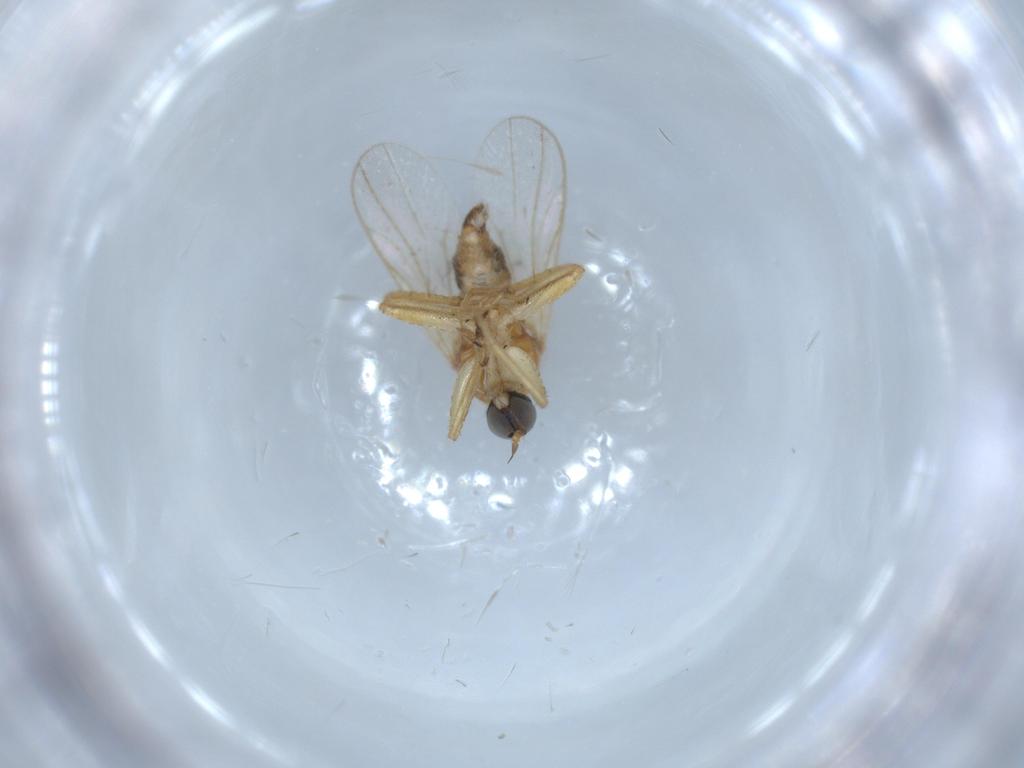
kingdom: Animalia
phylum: Arthropoda
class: Insecta
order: Diptera
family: Hybotidae
